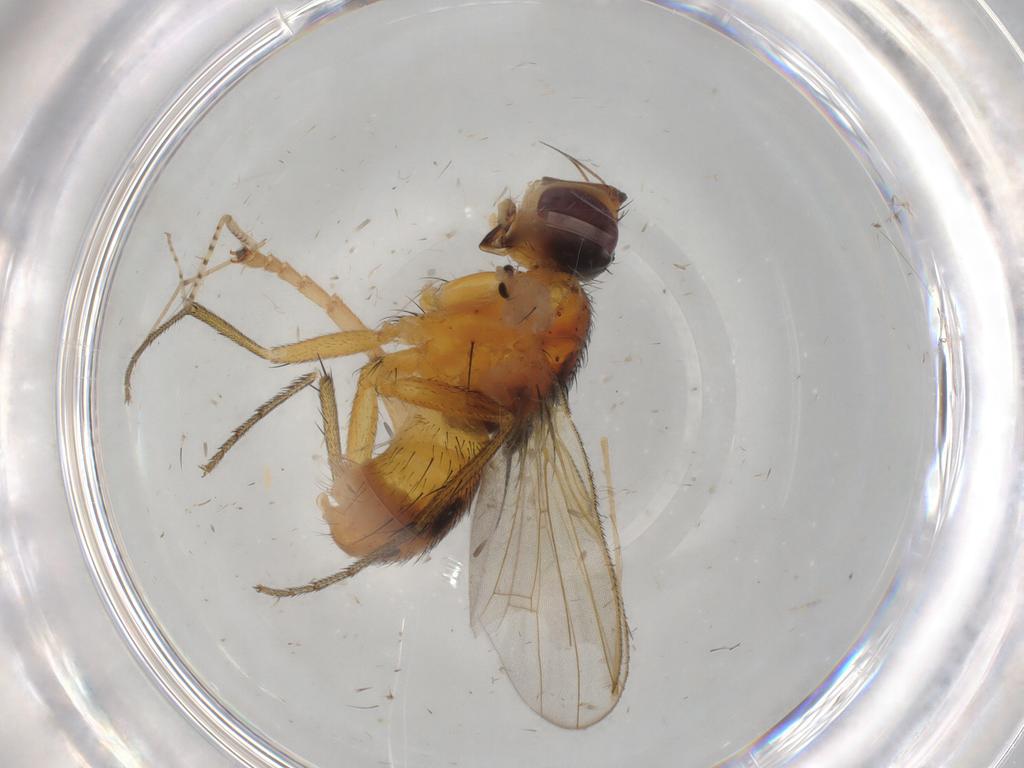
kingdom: Animalia
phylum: Arthropoda
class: Insecta
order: Diptera
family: Muscidae
